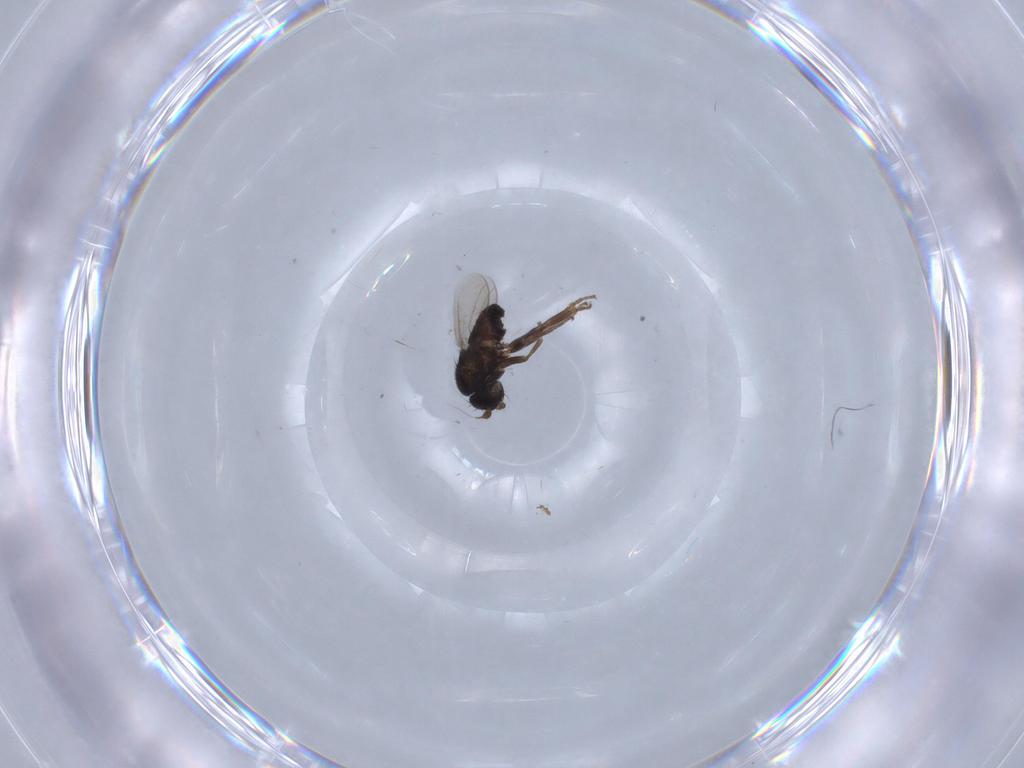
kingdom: Animalia
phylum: Arthropoda
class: Insecta
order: Diptera
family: Sphaeroceridae
